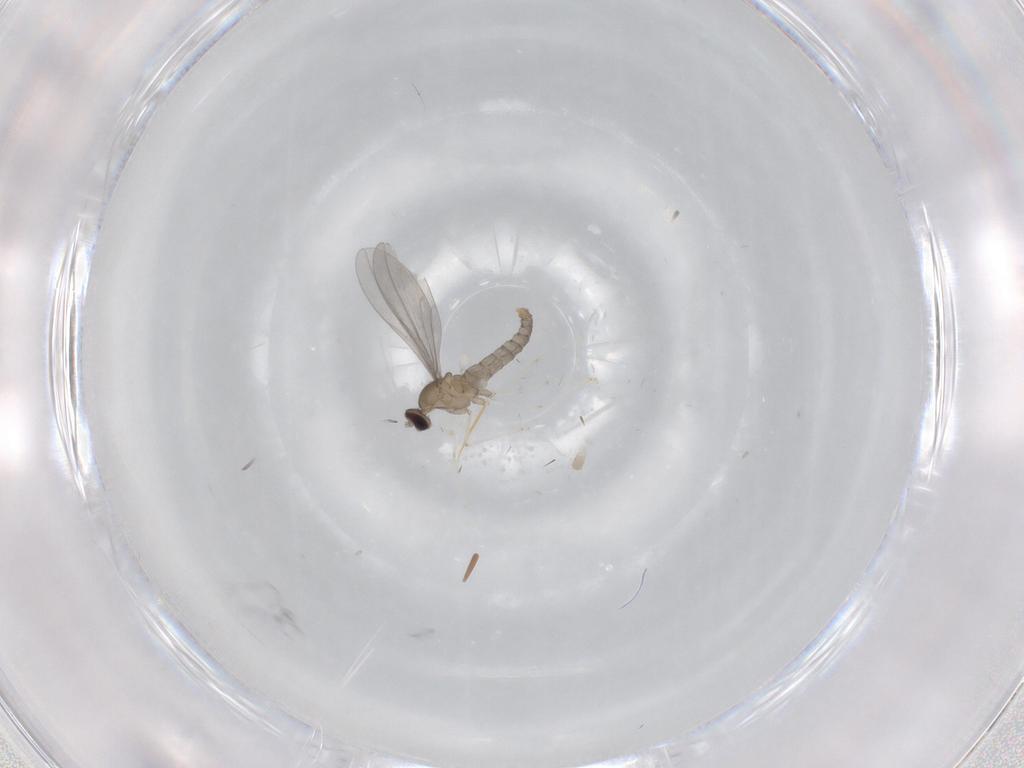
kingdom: Animalia
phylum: Arthropoda
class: Insecta
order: Diptera
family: Cecidomyiidae
